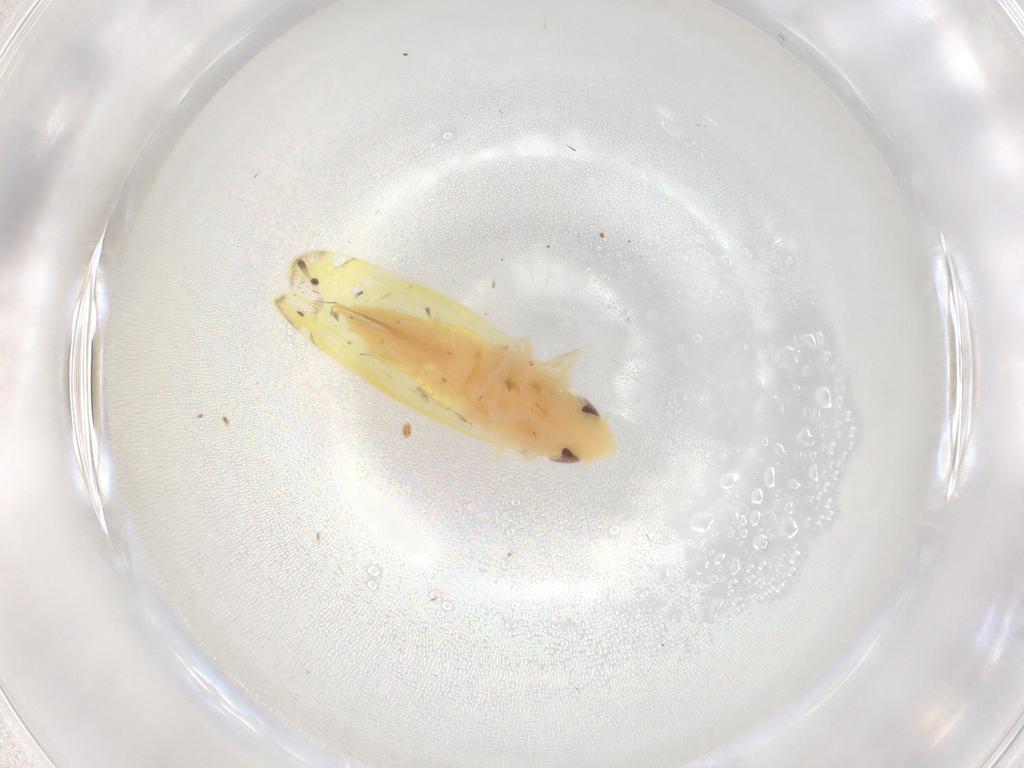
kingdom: Animalia
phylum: Arthropoda
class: Insecta
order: Hemiptera
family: Cicadellidae
